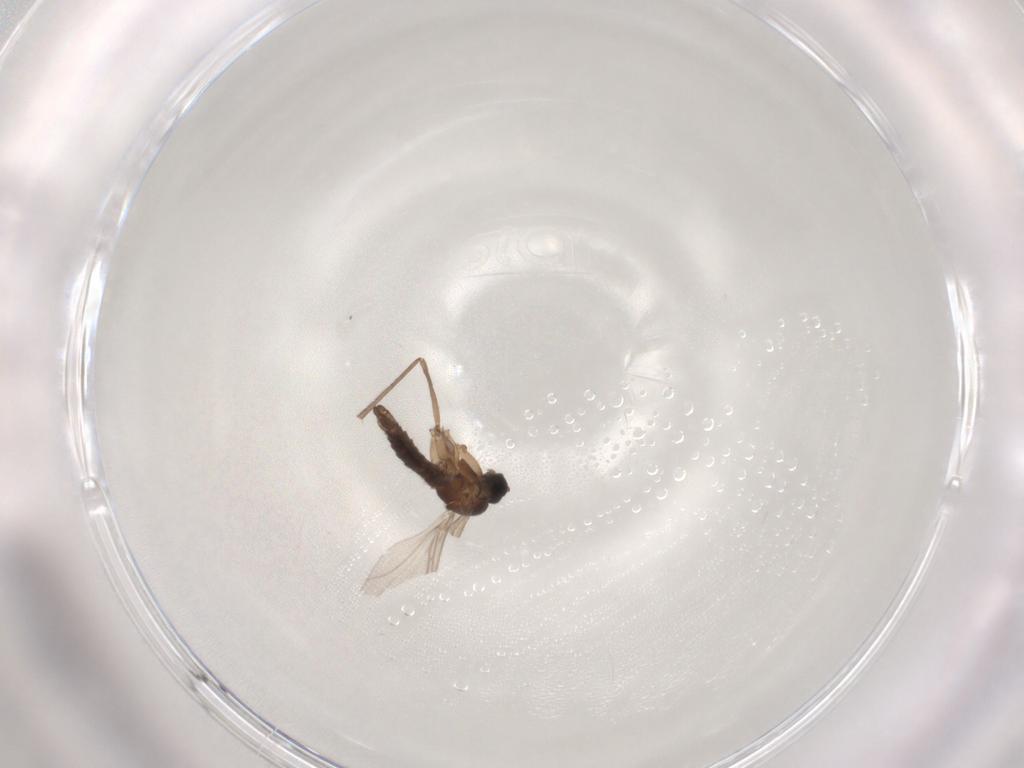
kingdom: Animalia
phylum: Arthropoda
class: Insecta
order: Diptera
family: Sciaridae
